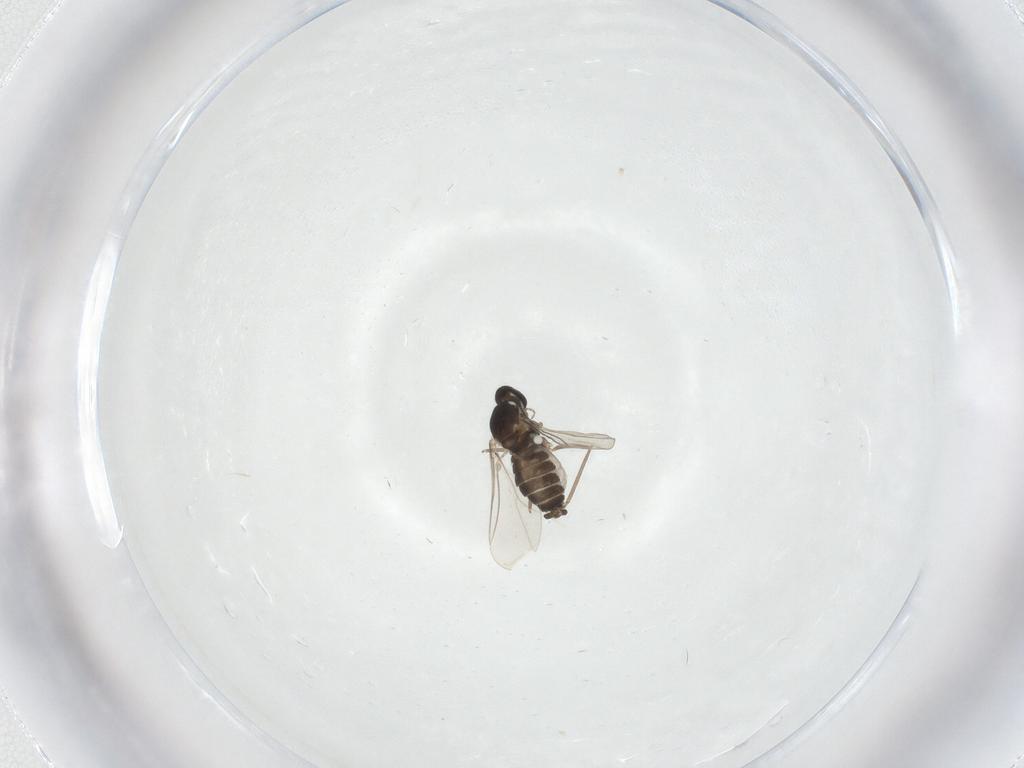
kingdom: Animalia
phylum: Arthropoda
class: Insecta
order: Diptera
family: Cecidomyiidae
